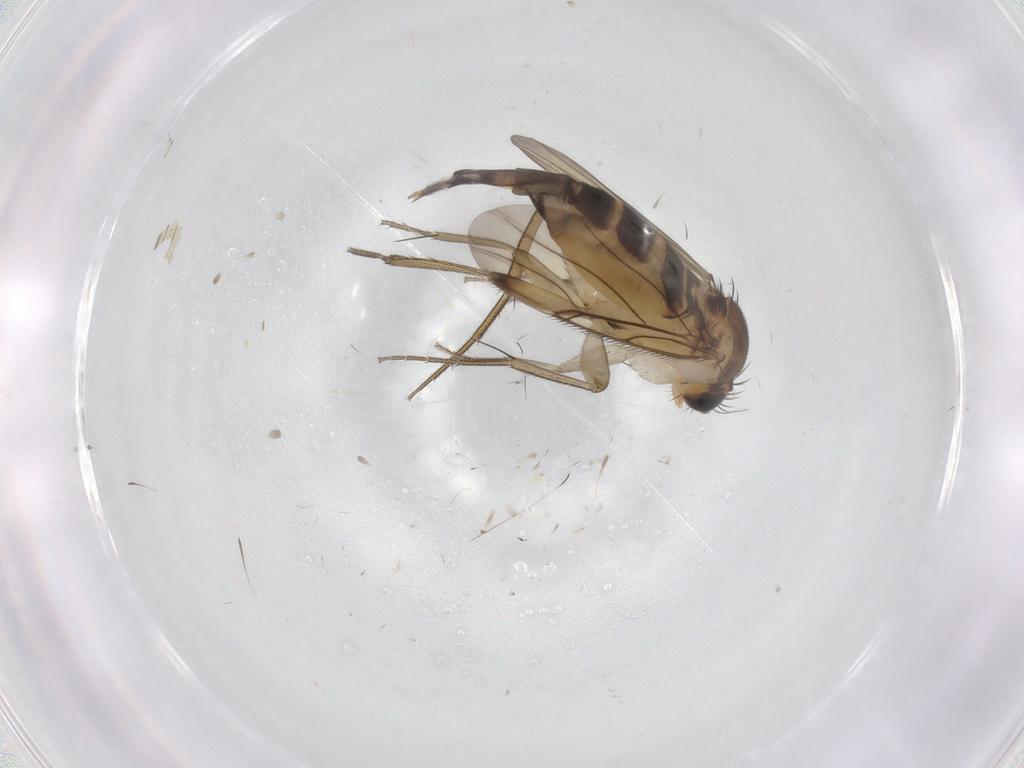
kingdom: Animalia
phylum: Arthropoda
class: Insecta
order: Diptera
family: Phoridae
